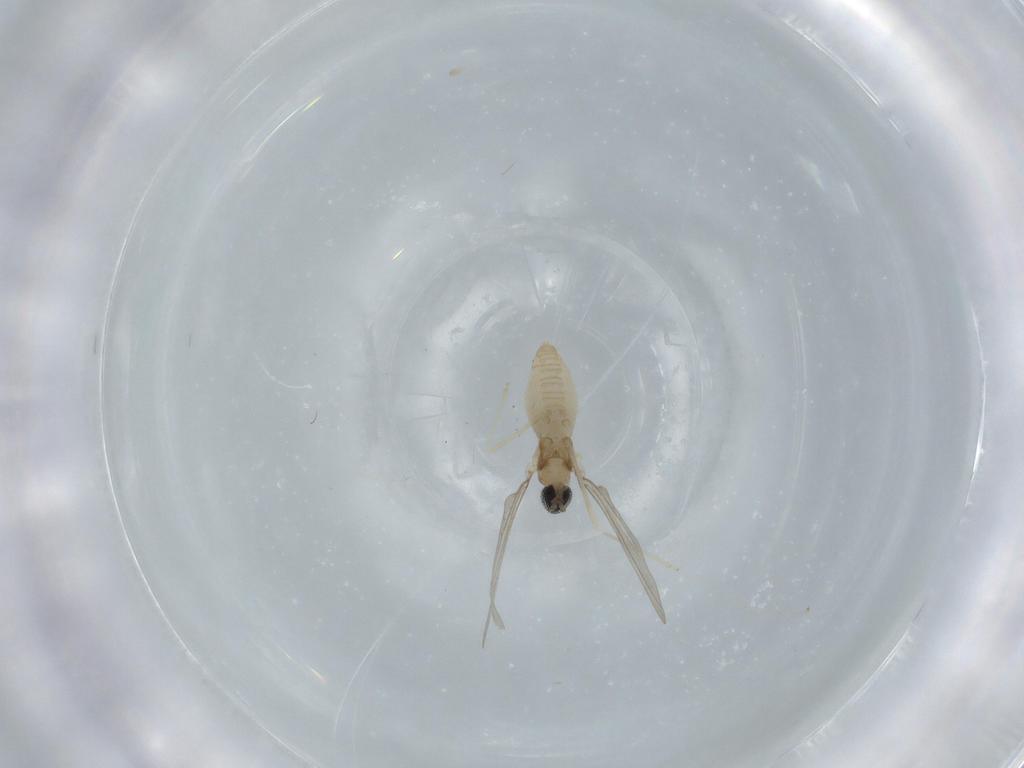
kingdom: Animalia
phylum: Arthropoda
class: Insecta
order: Diptera
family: Cecidomyiidae
